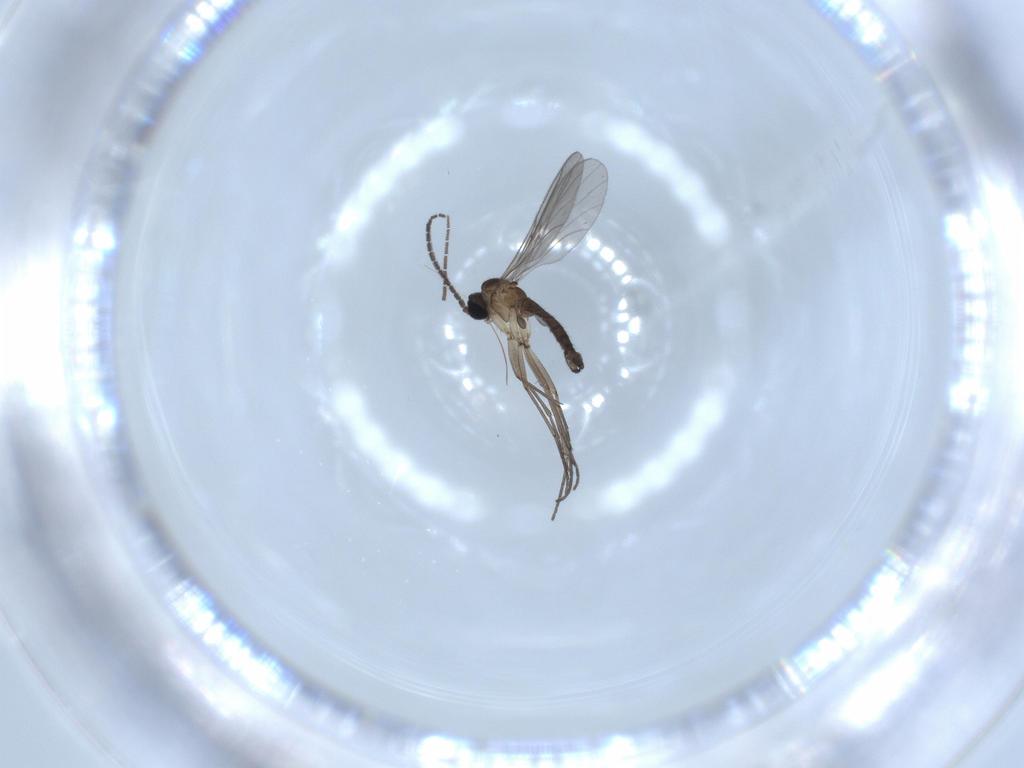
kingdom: Animalia
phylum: Arthropoda
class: Insecta
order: Diptera
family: Sciaridae
